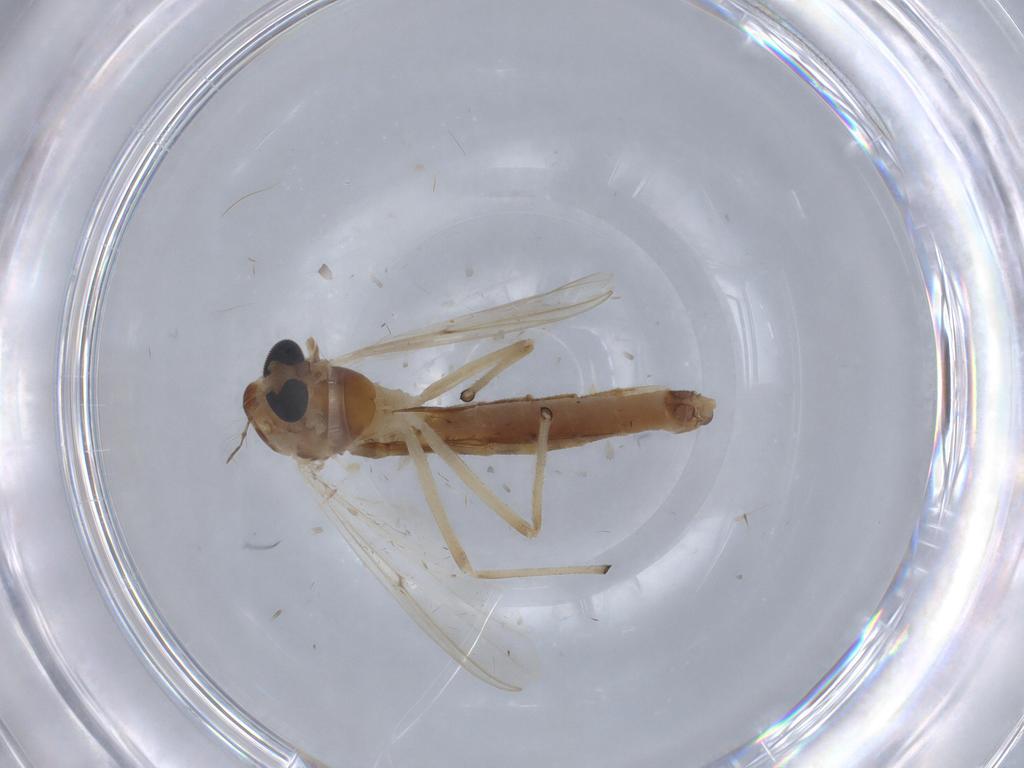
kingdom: Animalia
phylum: Arthropoda
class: Insecta
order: Diptera
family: Chironomidae
